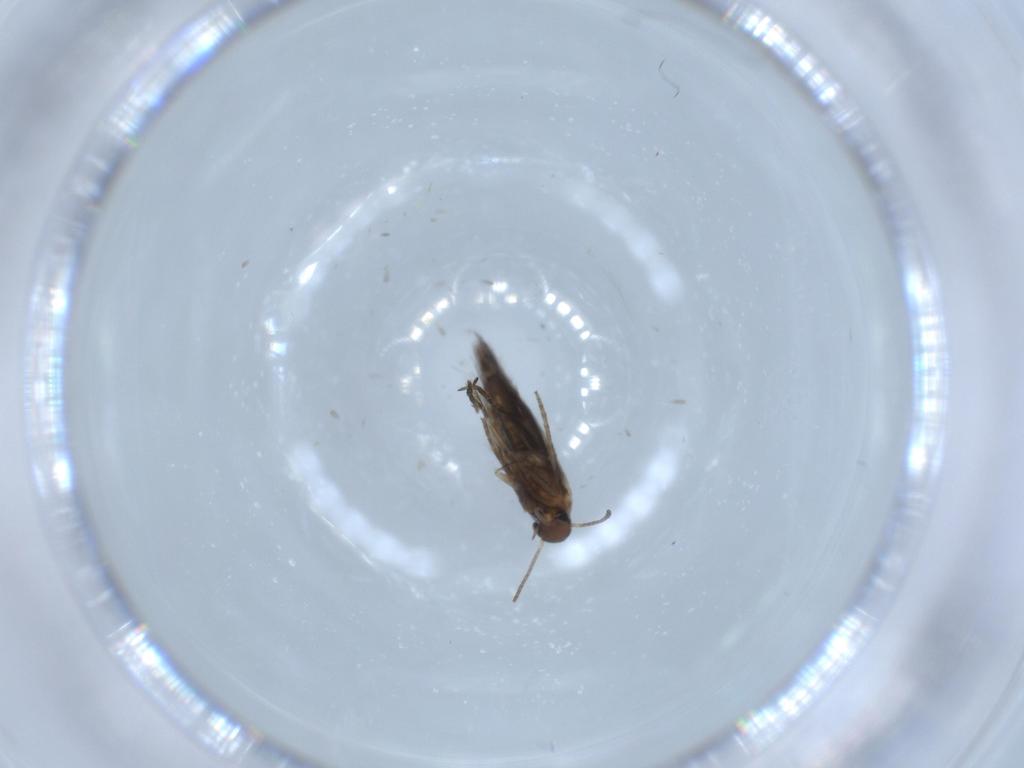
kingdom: Animalia
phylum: Arthropoda
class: Insecta
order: Lepidoptera
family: Heliozelidae
